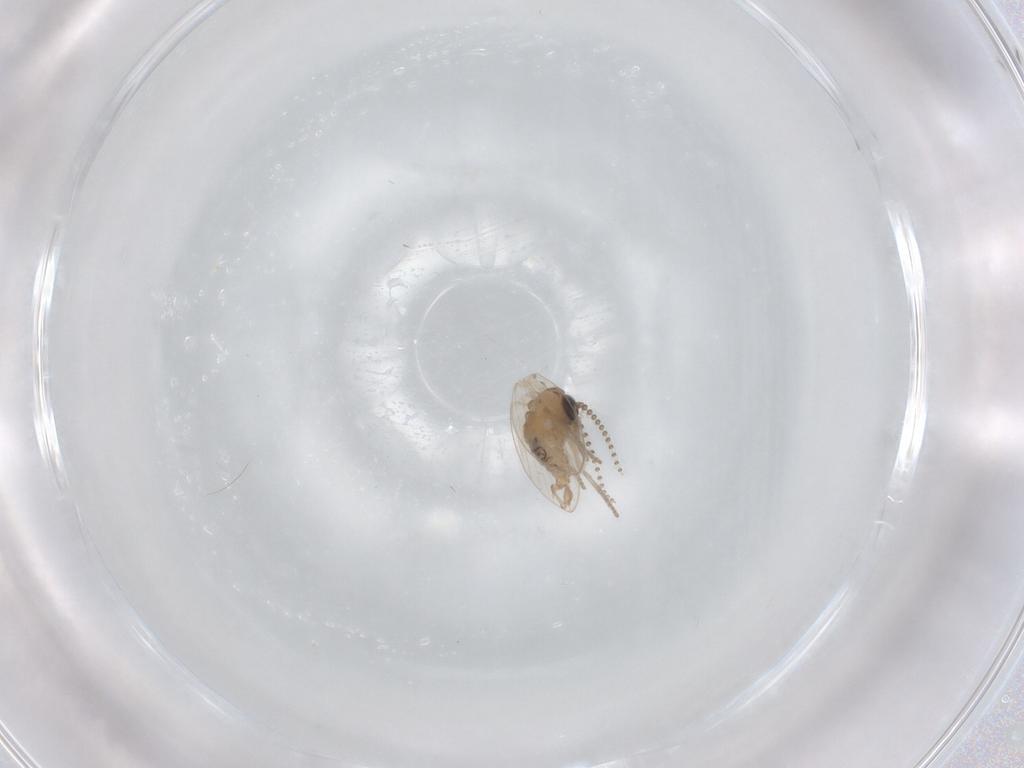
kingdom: Animalia
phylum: Arthropoda
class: Insecta
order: Diptera
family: Psychodidae
